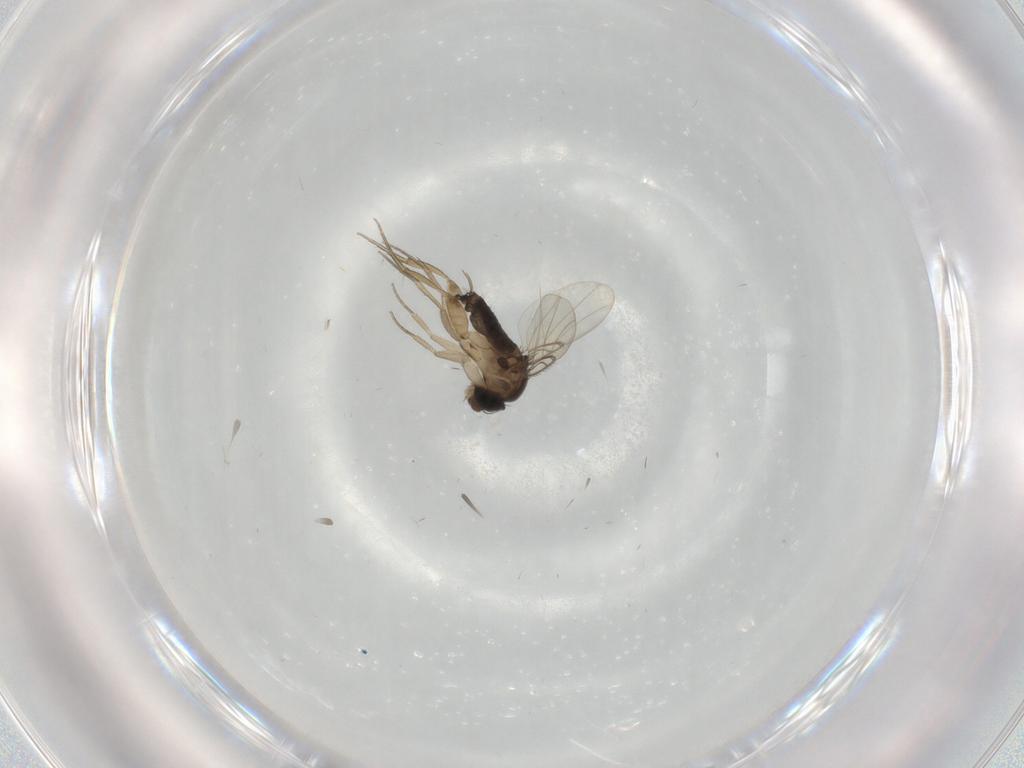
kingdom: Animalia
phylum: Arthropoda
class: Insecta
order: Diptera
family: Phoridae
